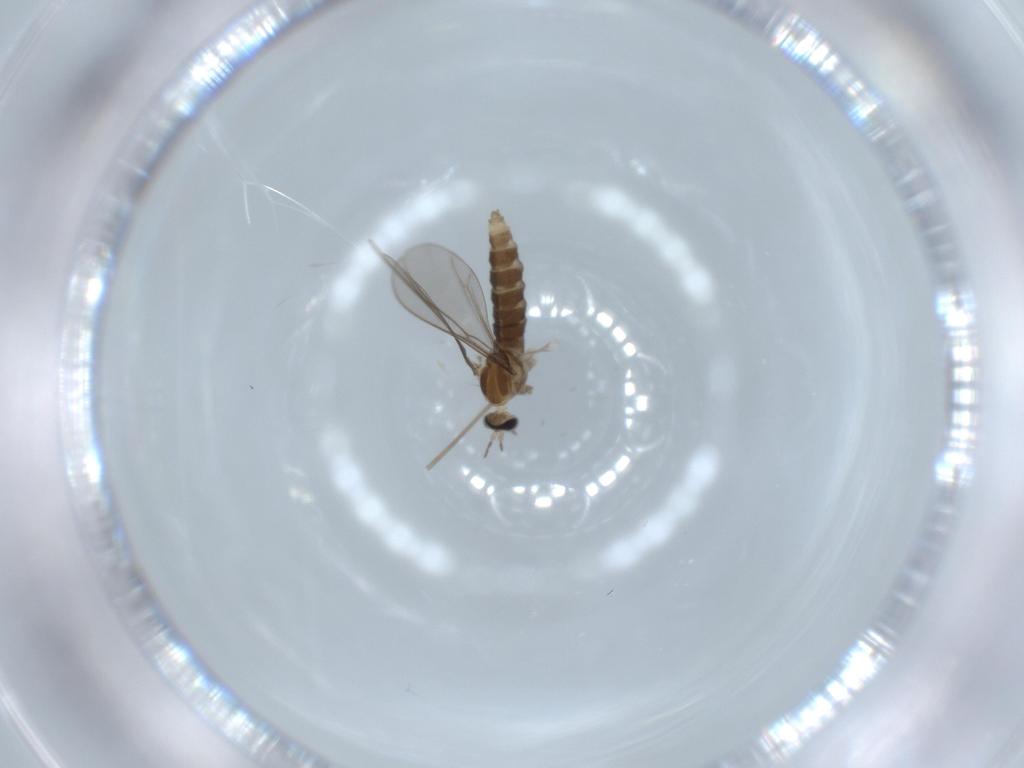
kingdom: Animalia
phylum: Arthropoda
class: Insecta
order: Diptera
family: Cecidomyiidae
